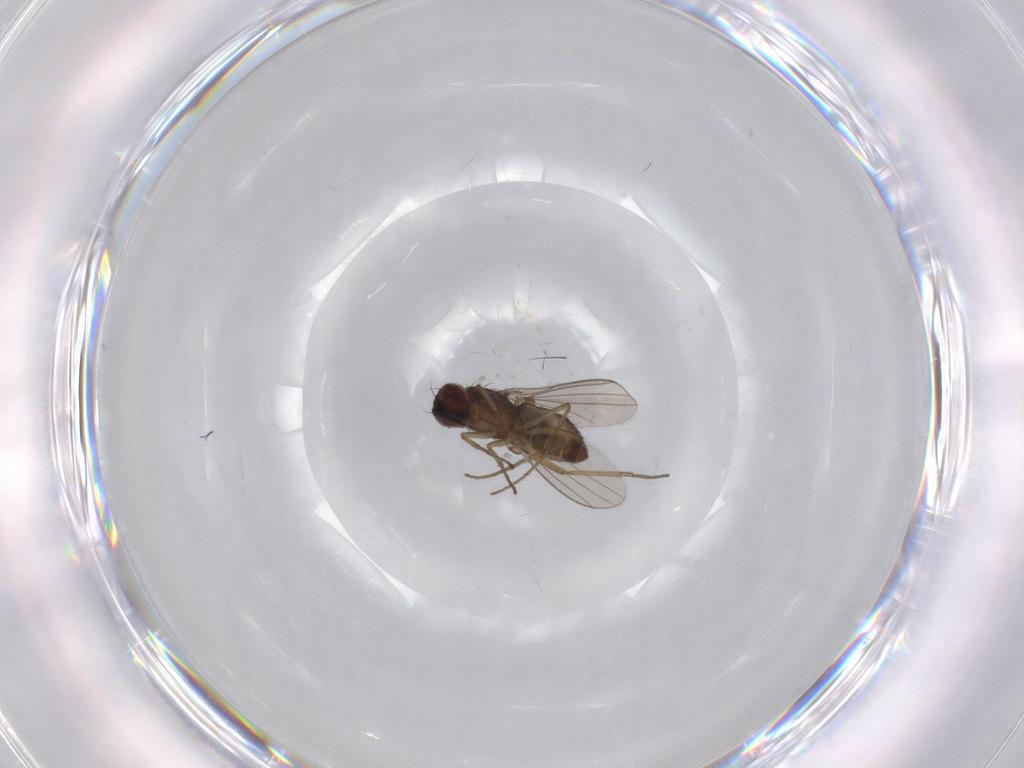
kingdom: Animalia
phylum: Arthropoda
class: Insecta
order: Diptera
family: Dolichopodidae
